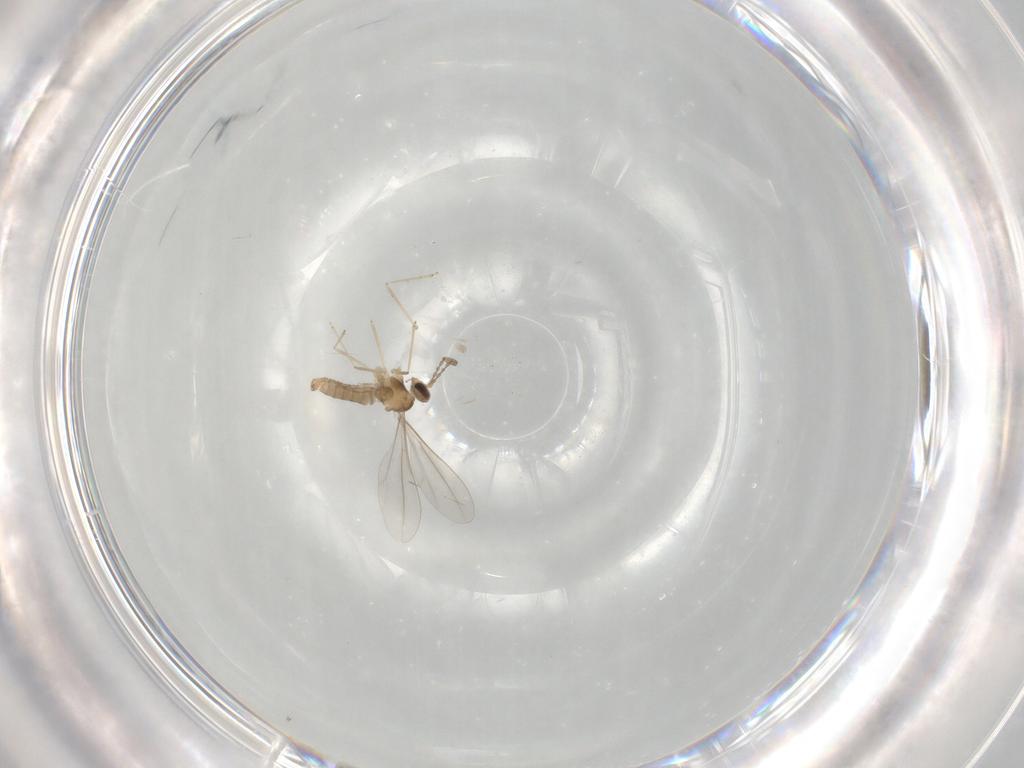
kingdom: Animalia
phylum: Arthropoda
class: Insecta
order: Diptera
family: Cecidomyiidae
